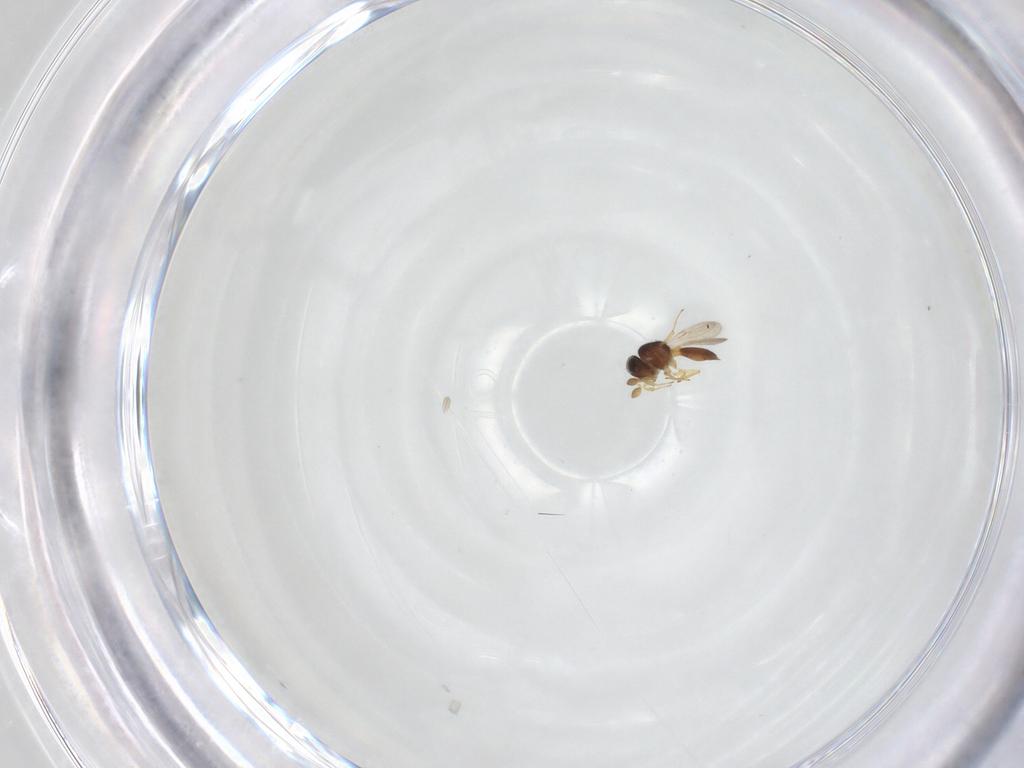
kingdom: Animalia
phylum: Arthropoda
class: Insecta
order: Hymenoptera
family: Scelionidae
